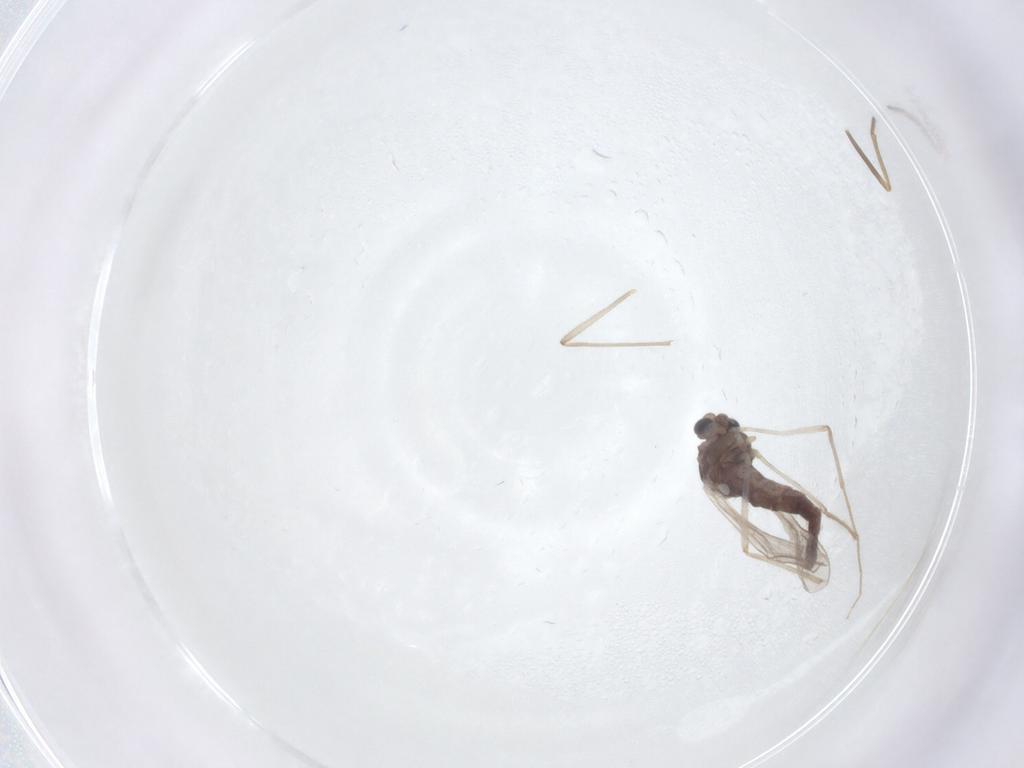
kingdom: Animalia
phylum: Arthropoda
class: Insecta
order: Diptera
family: Chironomidae
